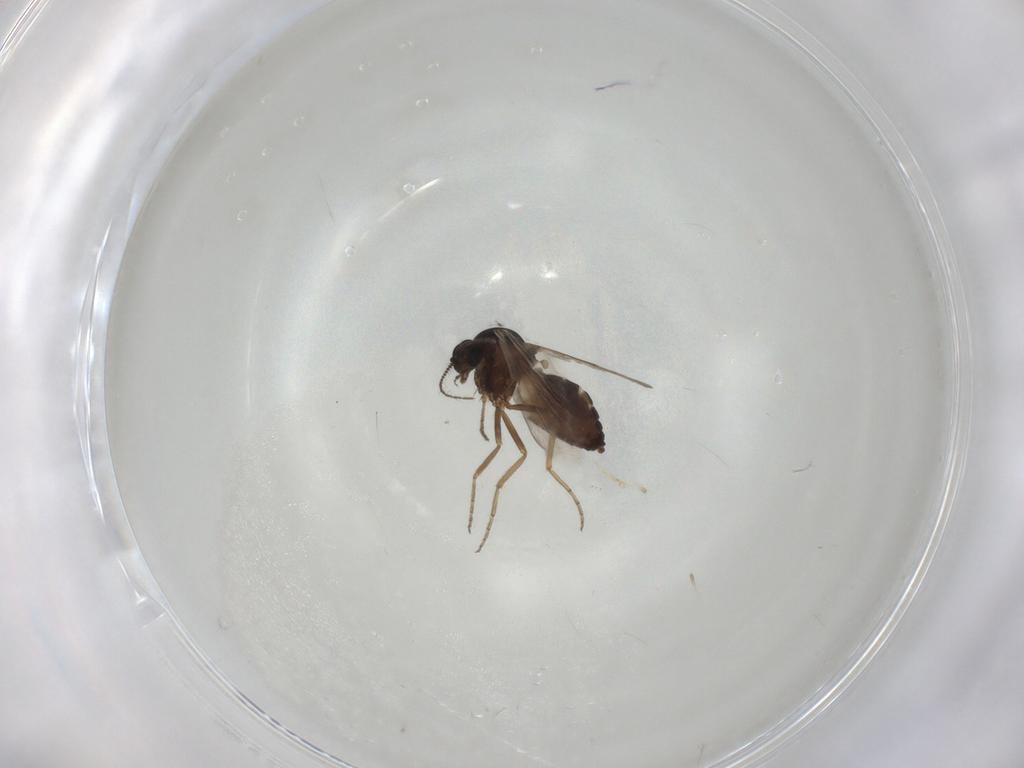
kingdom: Animalia
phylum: Arthropoda
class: Insecta
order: Diptera
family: Ceratopogonidae
